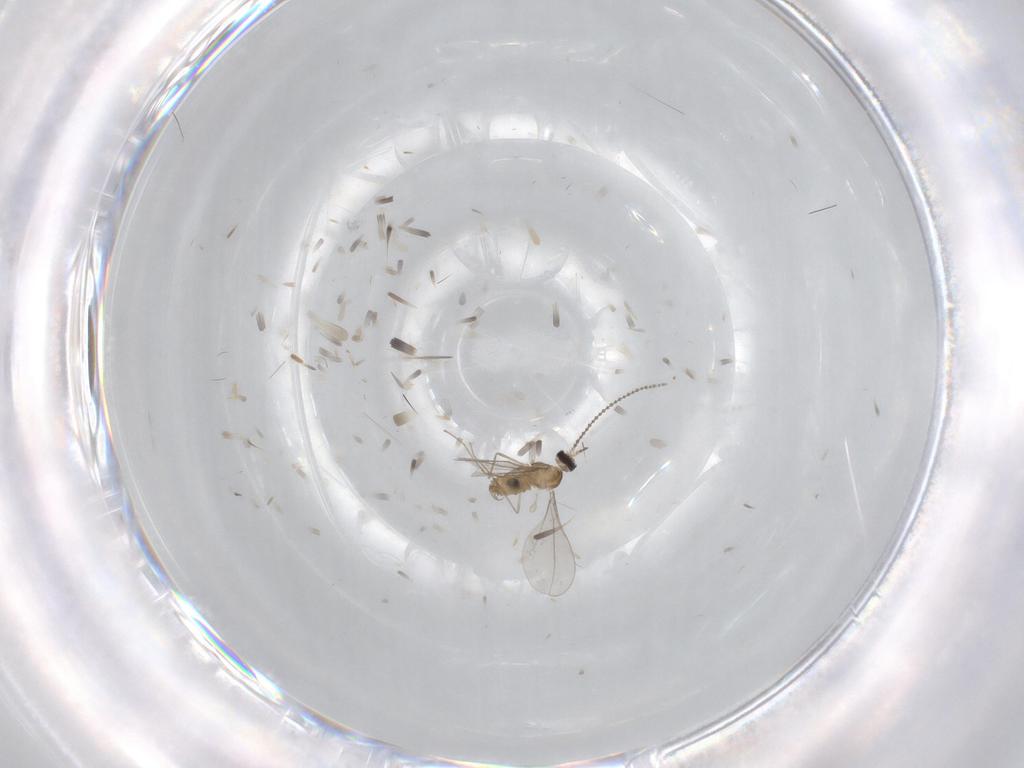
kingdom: Animalia
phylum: Arthropoda
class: Insecta
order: Diptera
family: Cecidomyiidae
